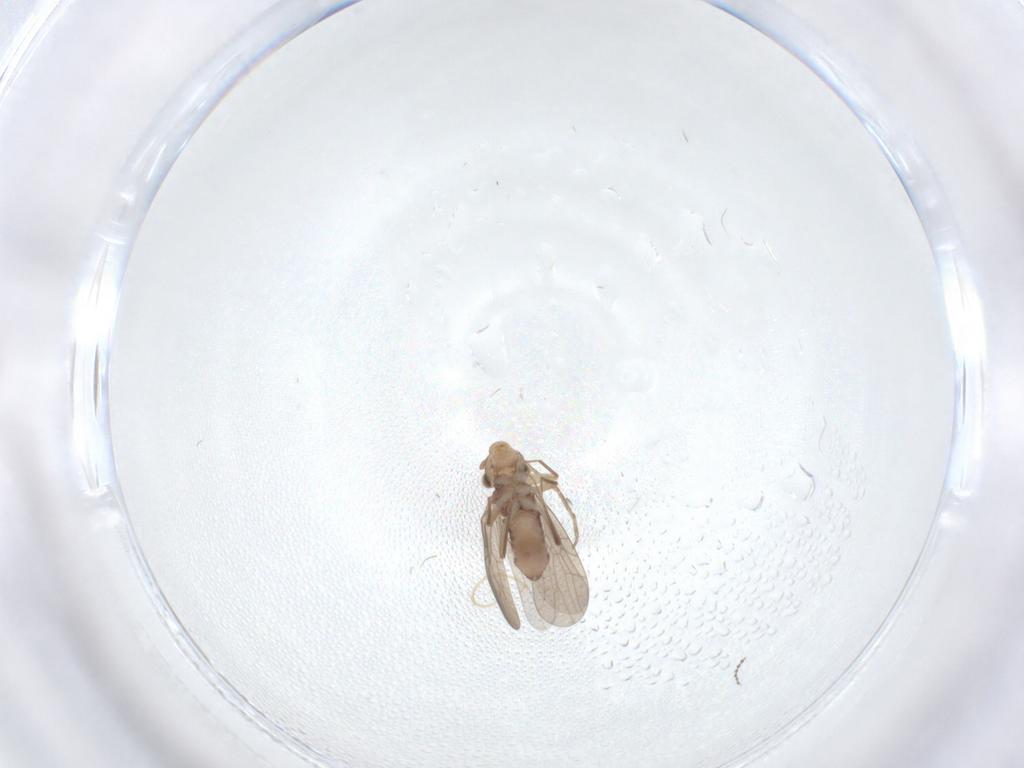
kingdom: Animalia
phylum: Arthropoda
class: Insecta
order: Psocodea
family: Lepidopsocidae
